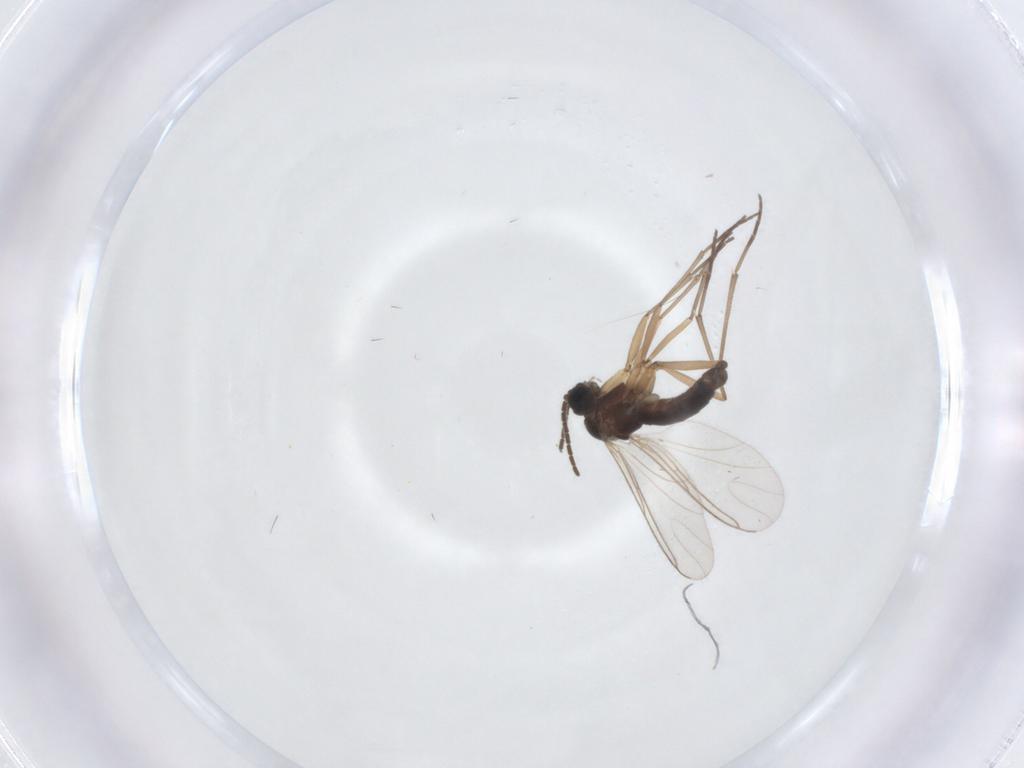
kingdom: Animalia
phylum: Arthropoda
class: Insecta
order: Diptera
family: Sciaridae
